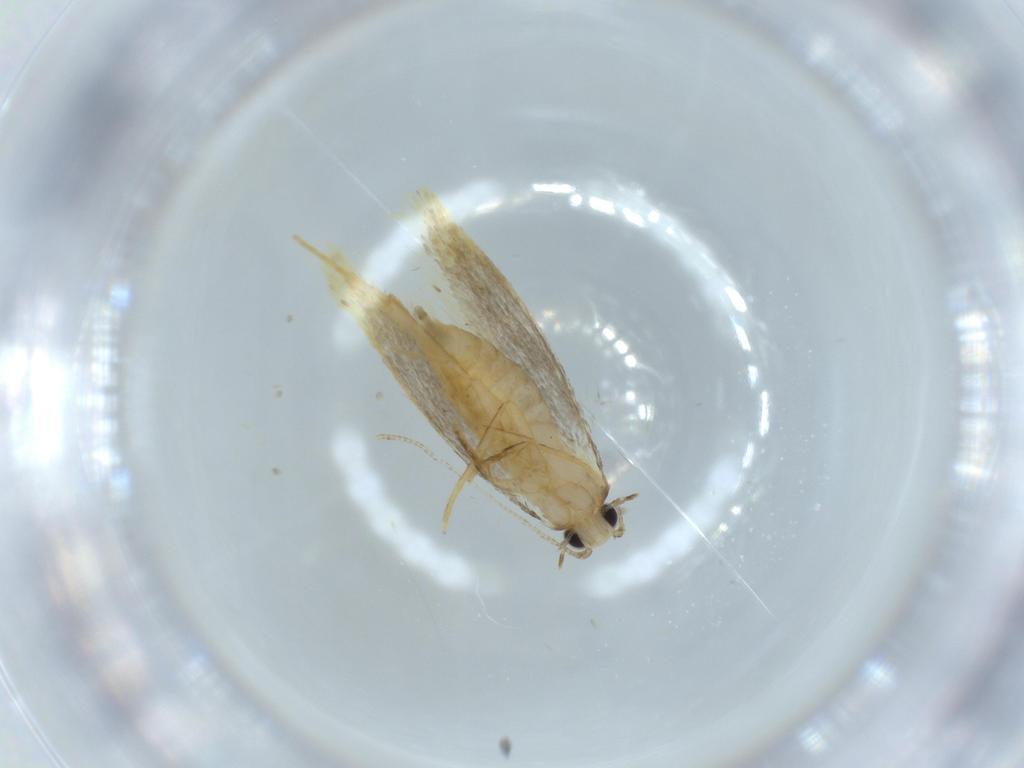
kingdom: Animalia
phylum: Arthropoda
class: Insecta
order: Lepidoptera
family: Tineidae
